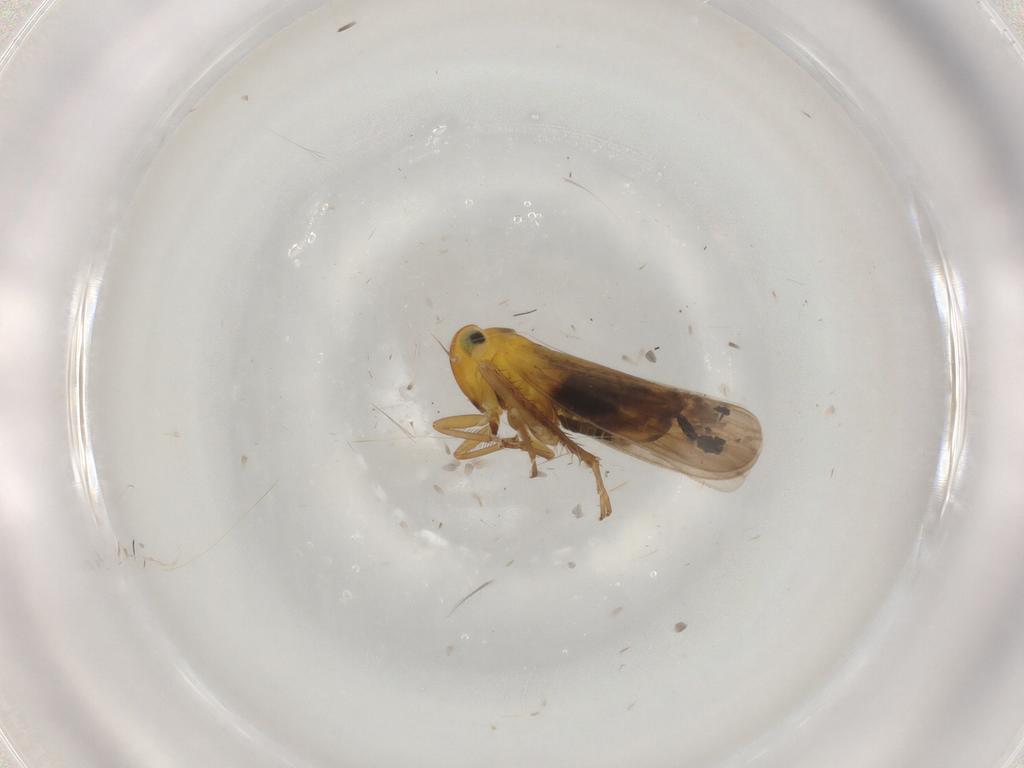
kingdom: Animalia
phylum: Arthropoda
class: Insecta
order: Hemiptera
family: Cicadellidae
